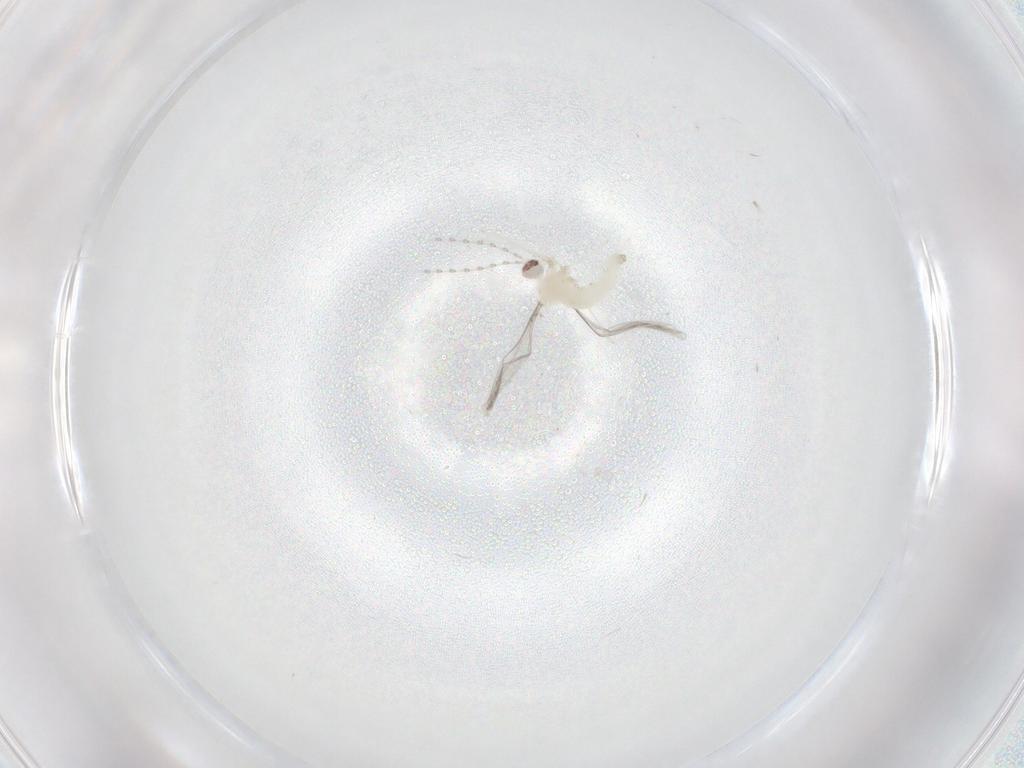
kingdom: Animalia
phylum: Arthropoda
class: Insecta
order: Diptera
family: Cecidomyiidae
